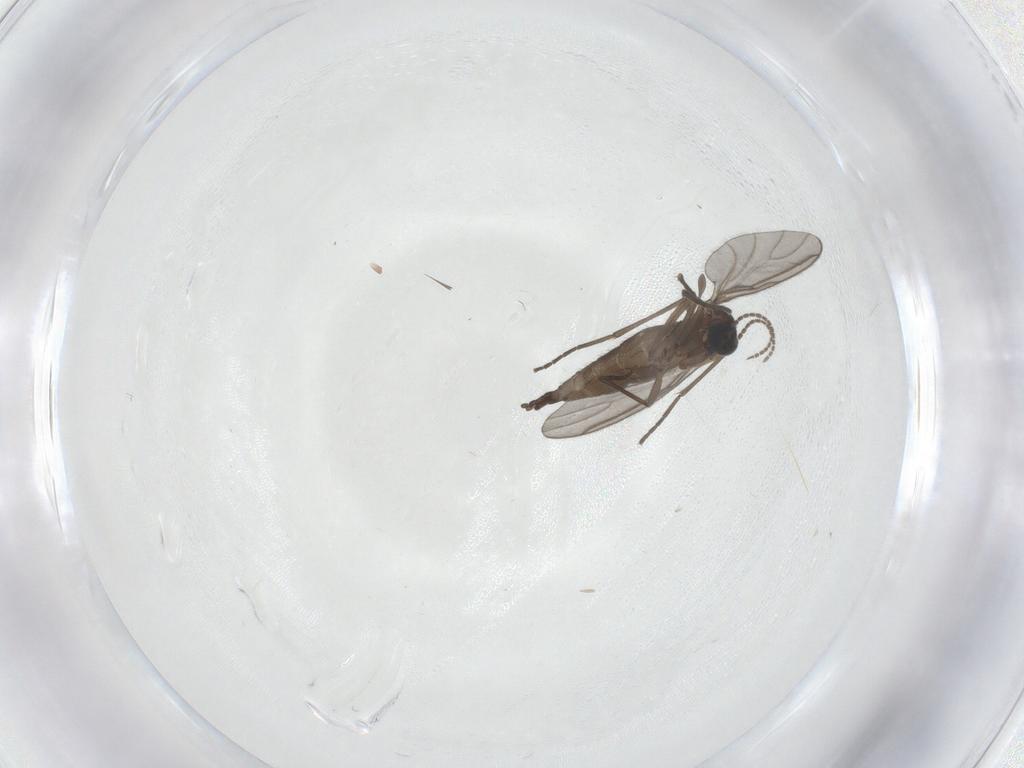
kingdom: Animalia
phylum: Arthropoda
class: Insecta
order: Diptera
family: Sciaridae
